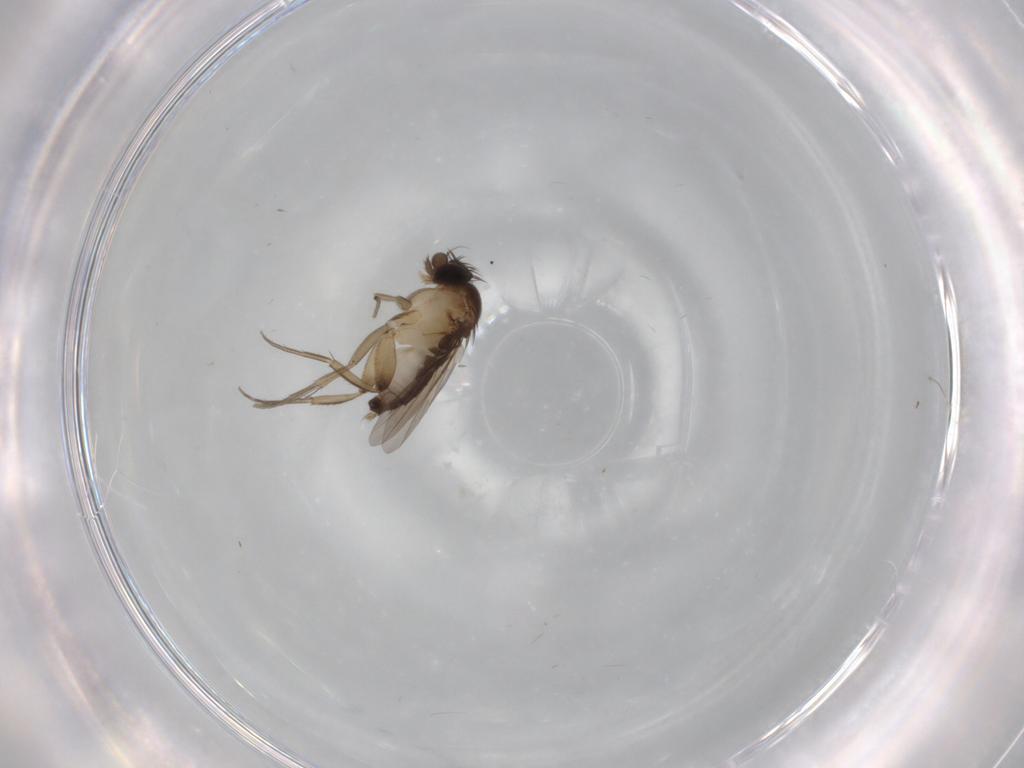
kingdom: Animalia
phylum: Arthropoda
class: Insecta
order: Diptera
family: Phoridae
